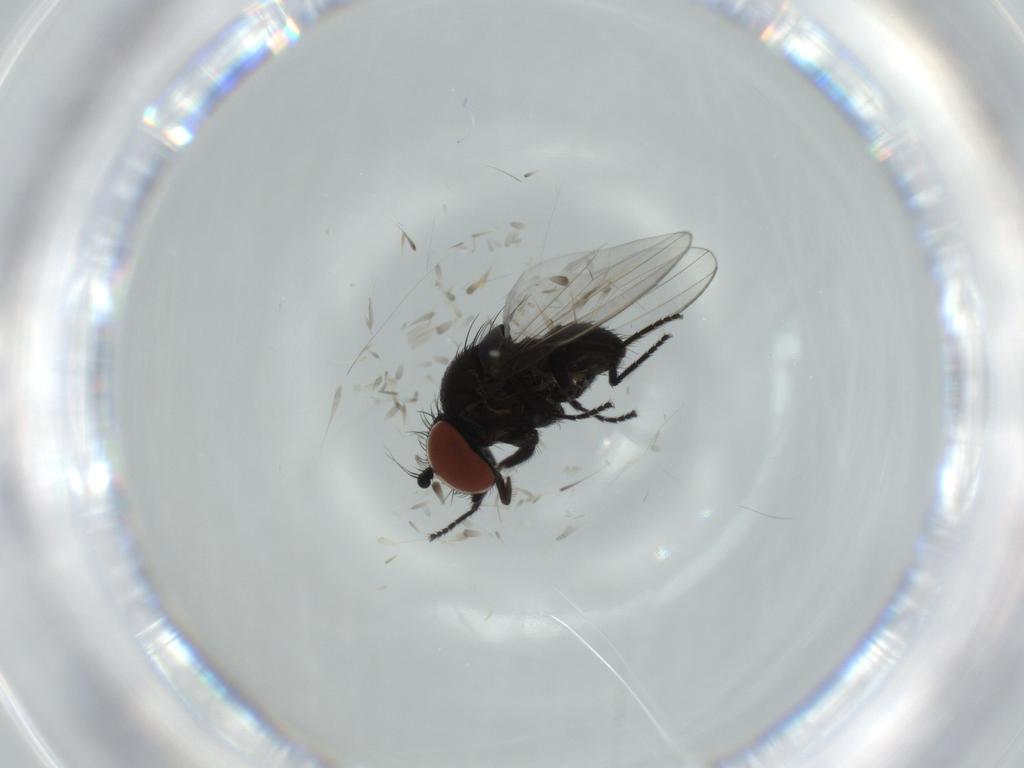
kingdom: Animalia
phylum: Arthropoda
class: Insecta
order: Diptera
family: Milichiidae
